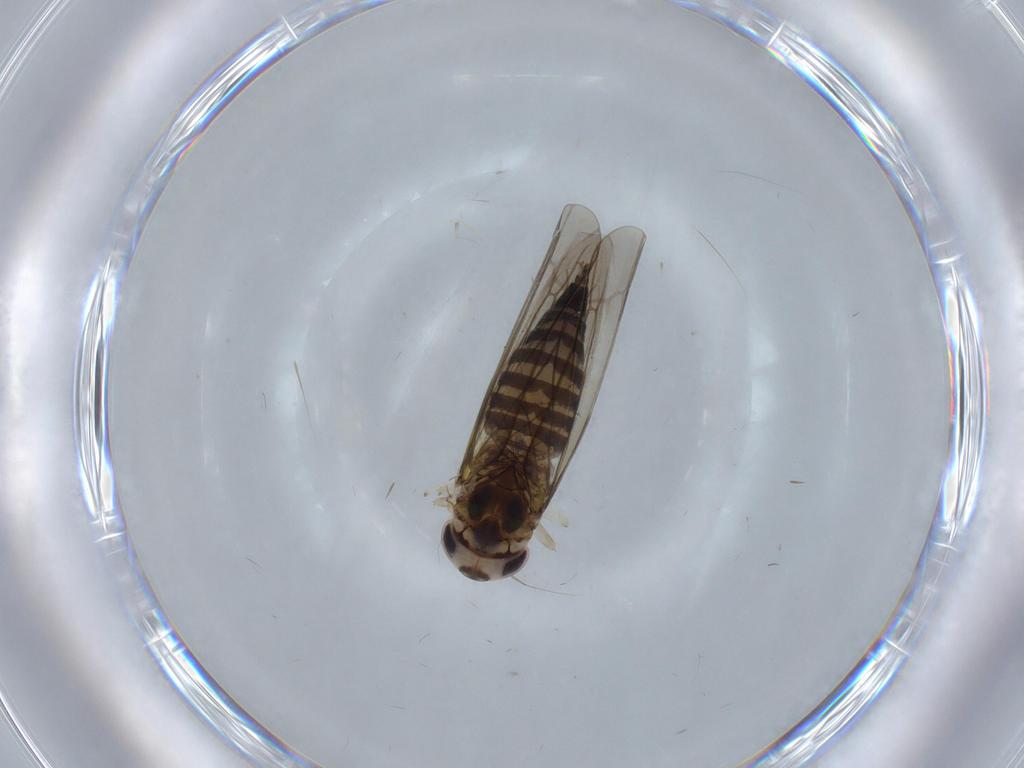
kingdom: Animalia
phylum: Arthropoda
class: Insecta
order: Hemiptera
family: Cicadellidae
